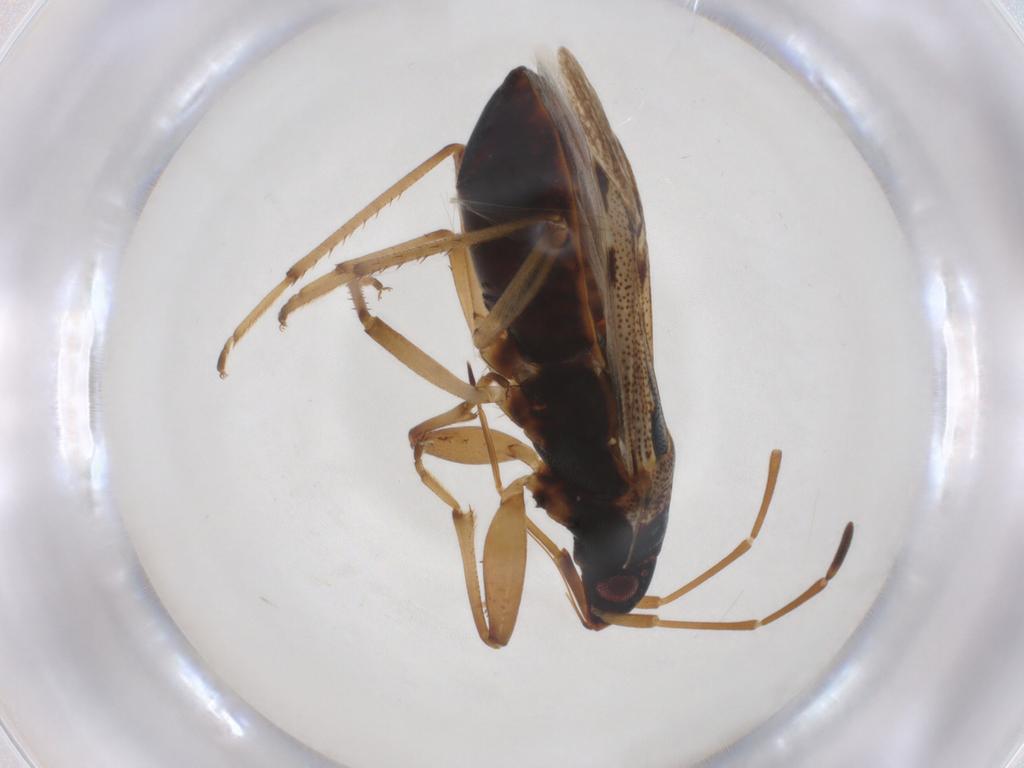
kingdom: Animalia
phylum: Arthropoda
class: Insecta
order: Hemiptera
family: Rhyparochromidae
